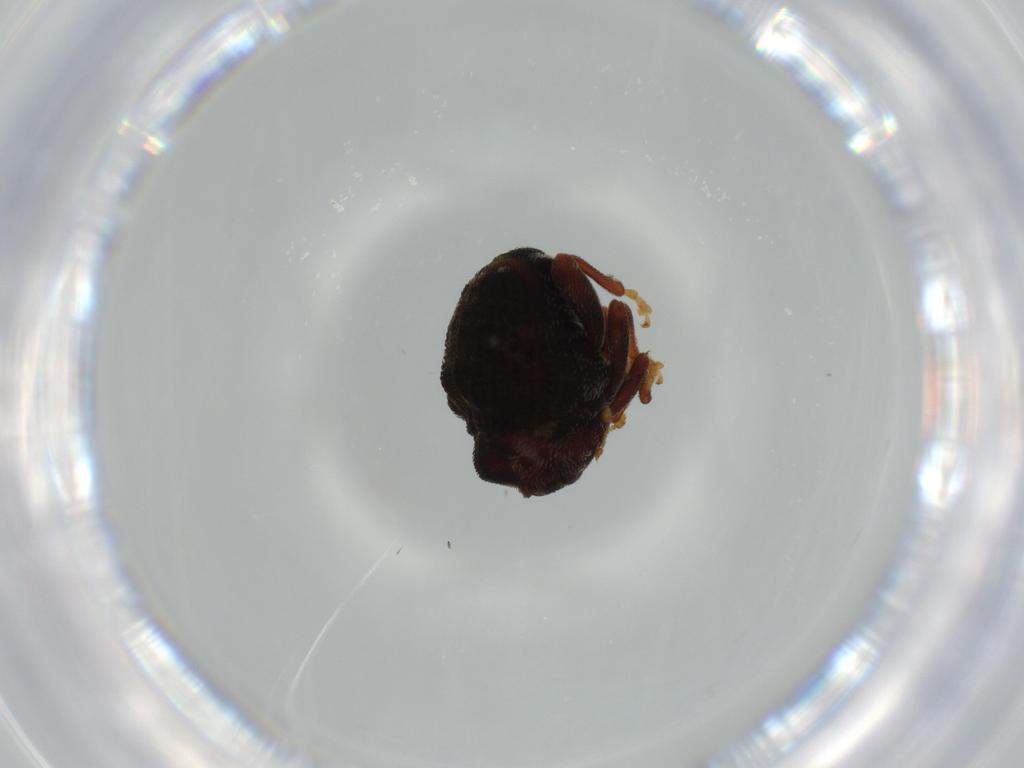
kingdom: Animalia
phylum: Arthropoda
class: Insecta
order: Coleoptera
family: Curculionidae
